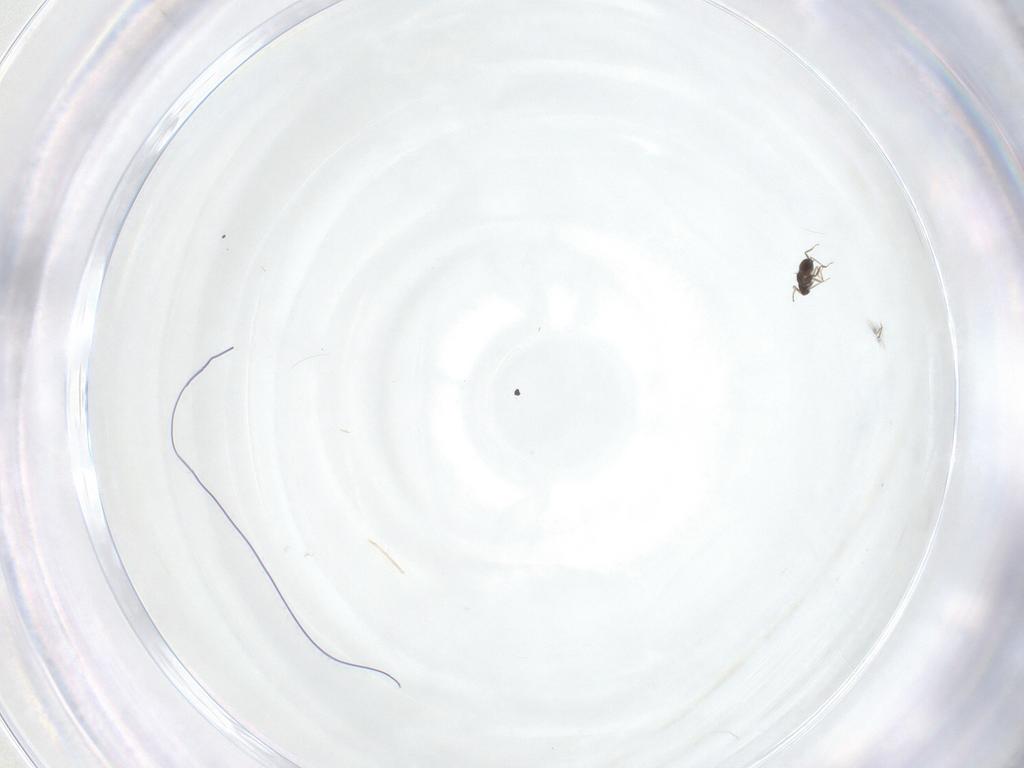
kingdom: Animalia
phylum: Arthropoda
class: Insecta
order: Hymenoptera
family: Mymaridae
